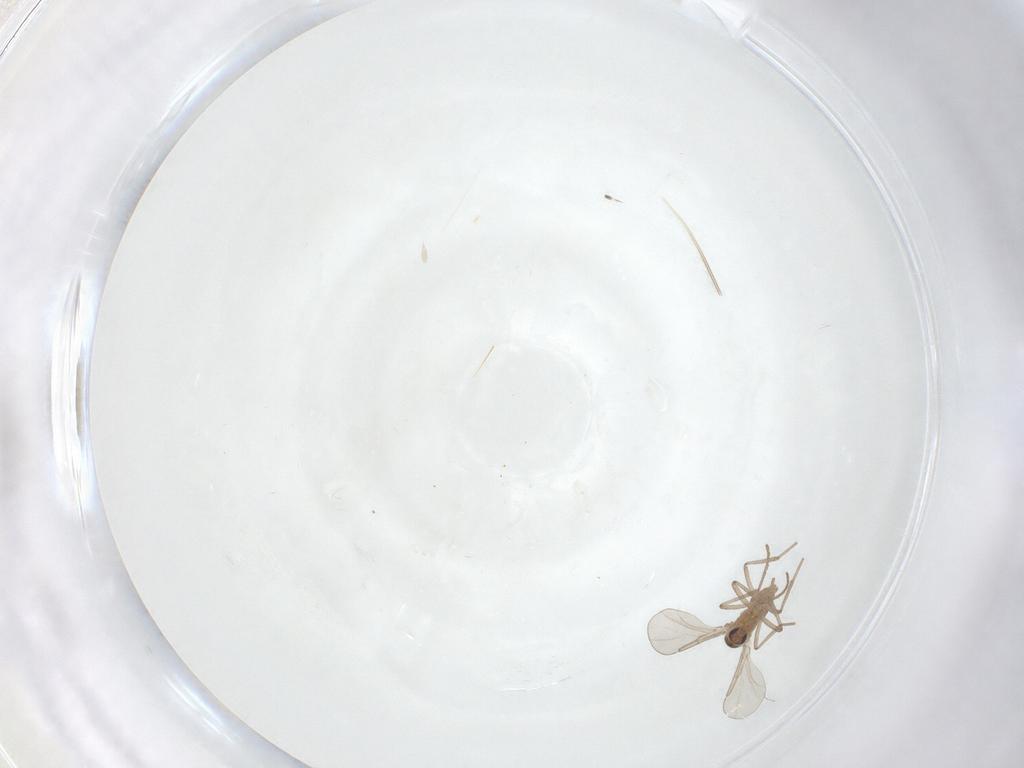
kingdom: Animalia
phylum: Arthropoda
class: Insecta
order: Diptera
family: Cecidomyiidae
